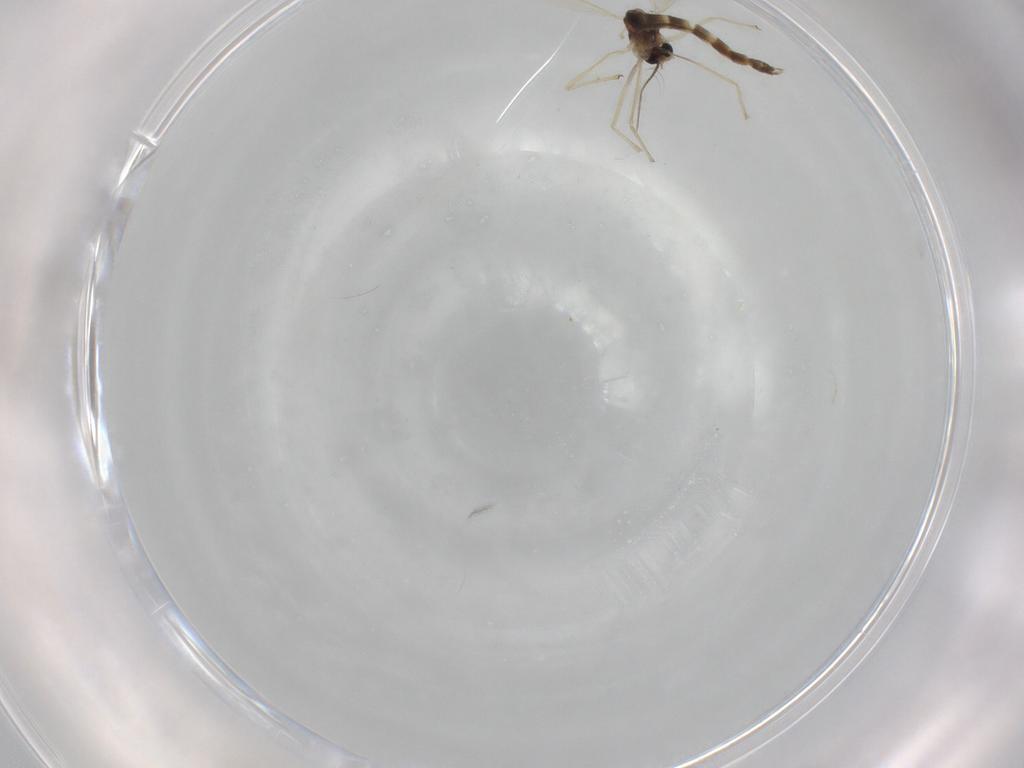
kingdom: Animalia
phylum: Arthropoda
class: Insecta
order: Diptera
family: Chironomidae
